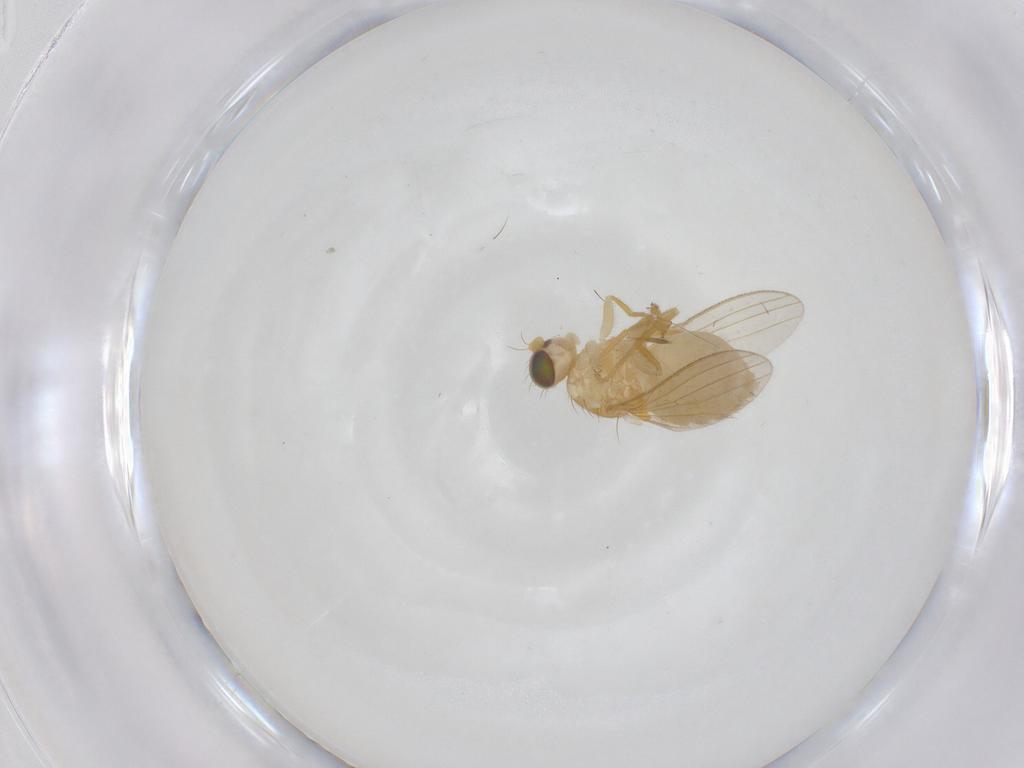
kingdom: Animalia
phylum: Arthropoda
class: Insecta
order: Diptera
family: Chyromyidae
